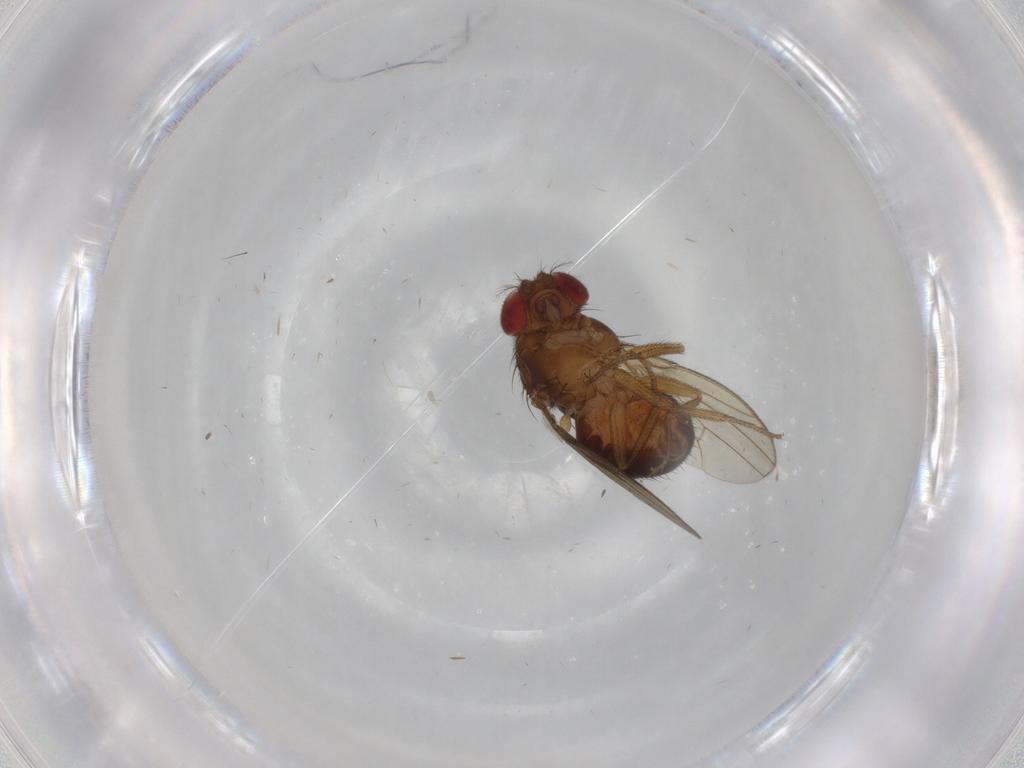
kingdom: Animalia
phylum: Arthropoda
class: Insecta
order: Diptera
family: Drosophilidae
